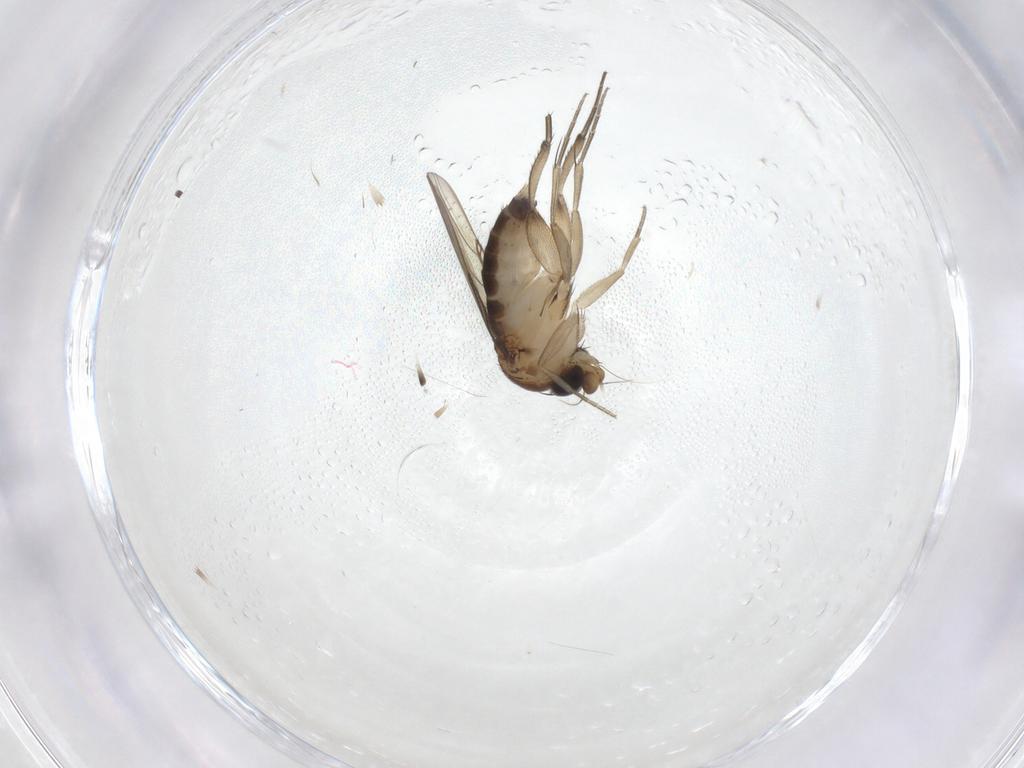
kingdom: Animalia
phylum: Arthropoda
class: Insecta
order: Diptera
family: Phoridae
